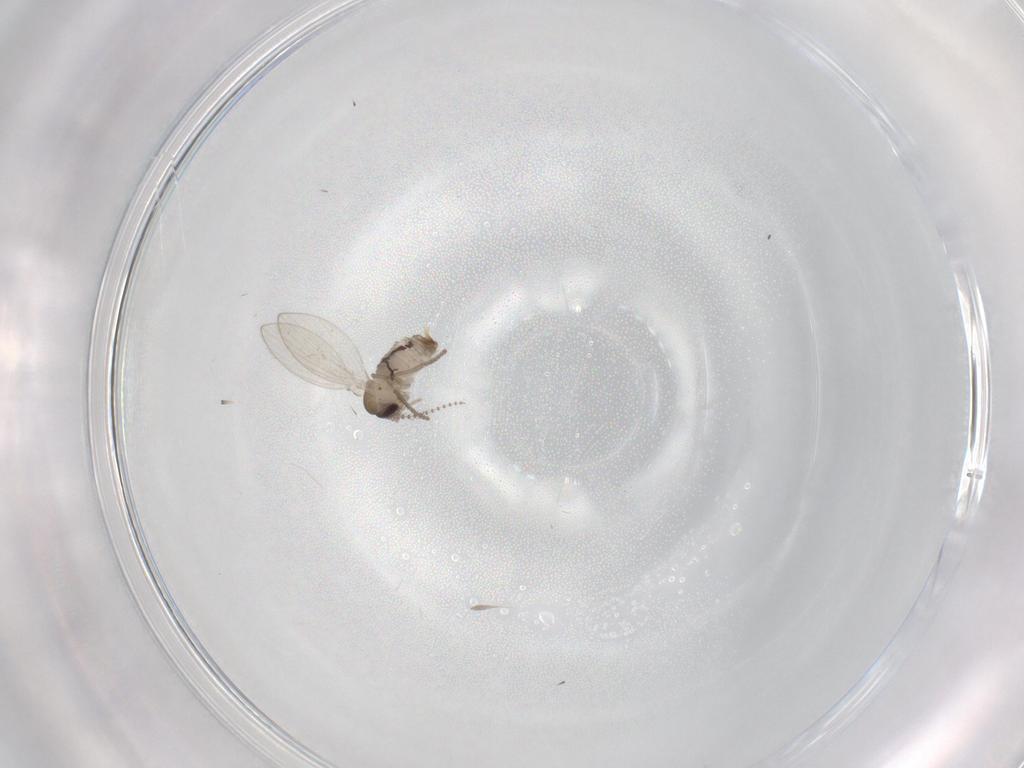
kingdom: Animalia
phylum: Arthropoda
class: Insecta
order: Diptera
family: Psychodidae
